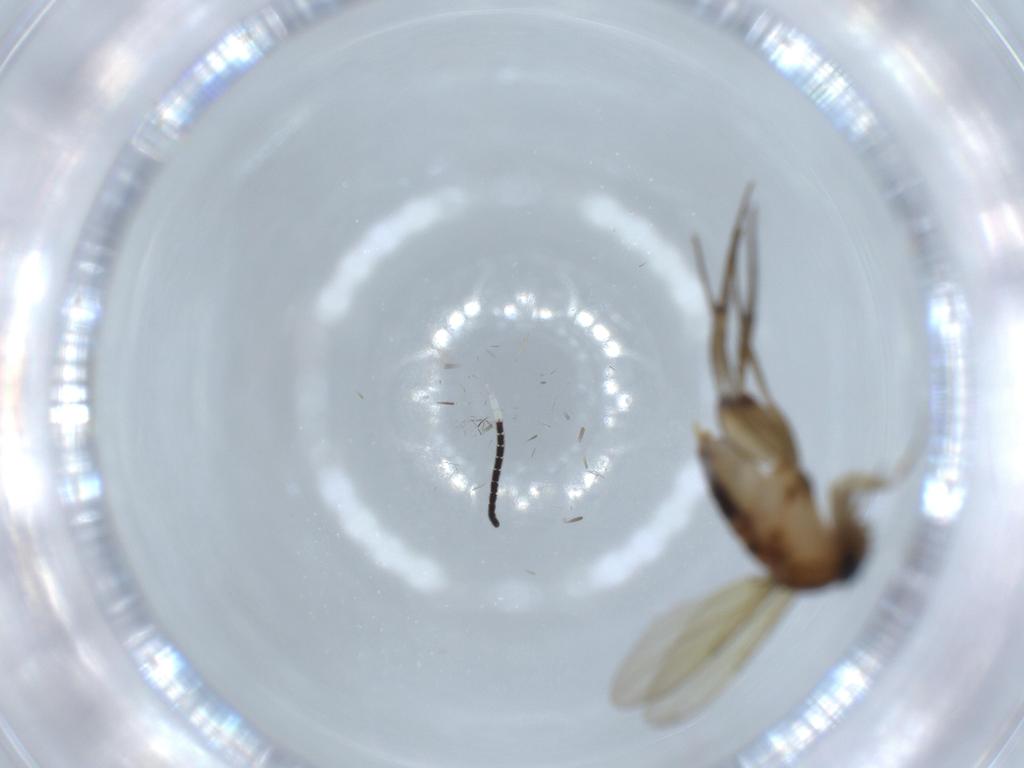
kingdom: Animalia
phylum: Arthropoda
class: Insecta
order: Diptera
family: Phoridae
